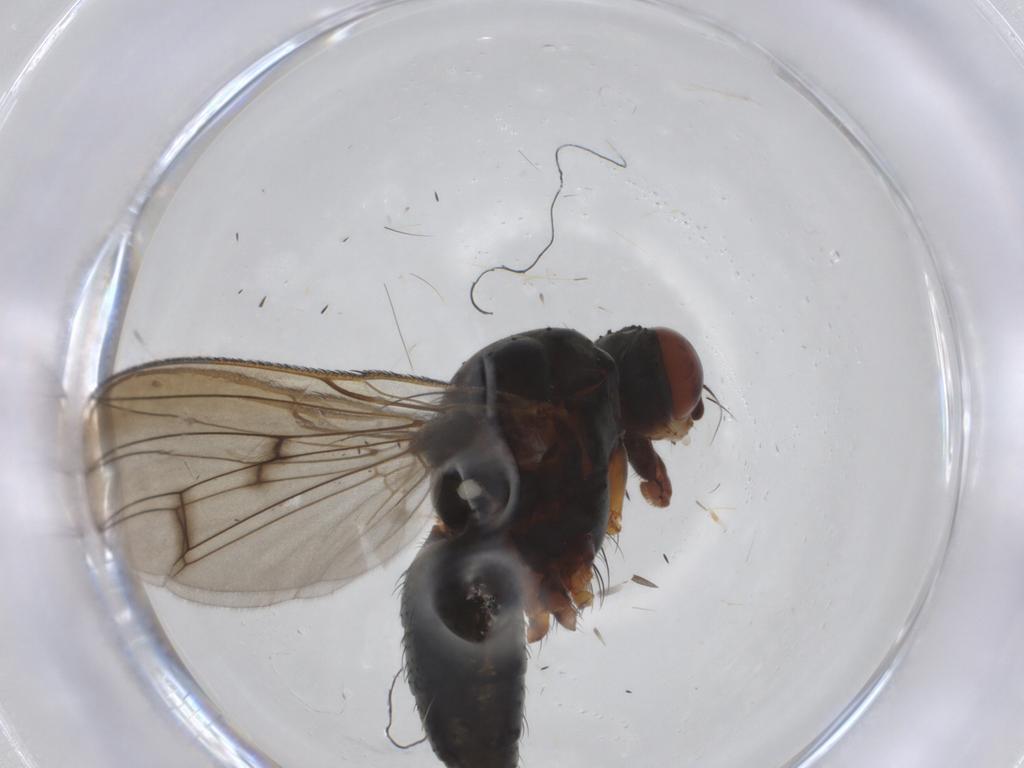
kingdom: Animalia
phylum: Arthropoda
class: Insecta
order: Diptera
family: Anthomyiidae
